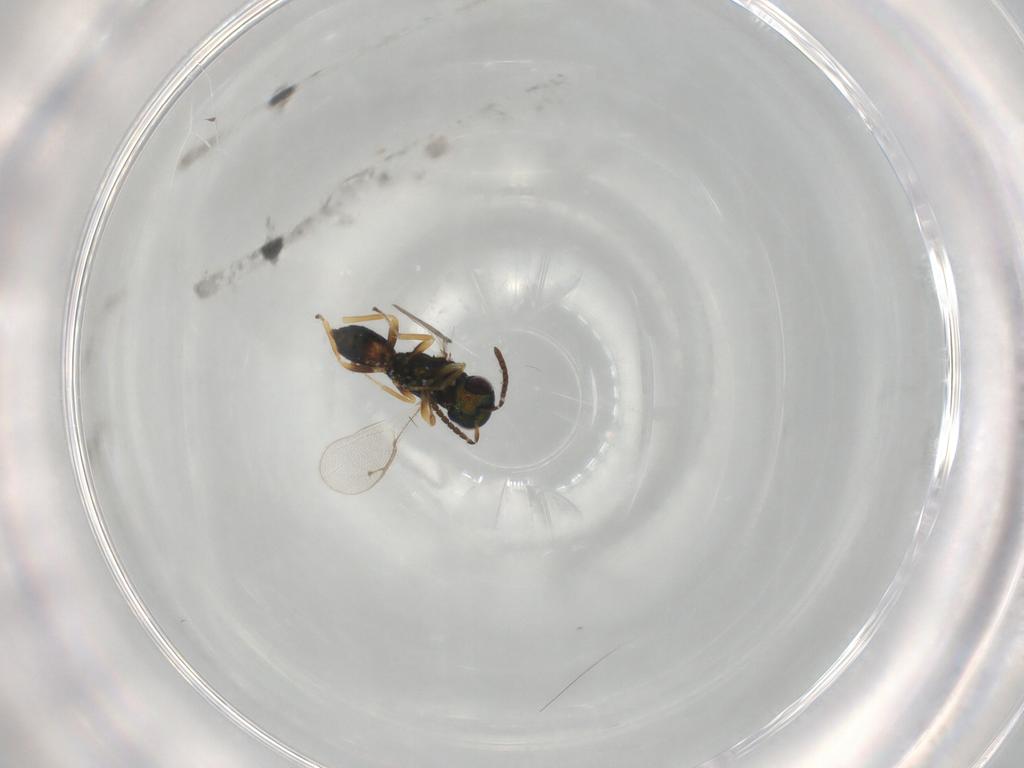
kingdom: Animalia
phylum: Arthropoda
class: Insecta
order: Hymenoptera
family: Pteromalidae
